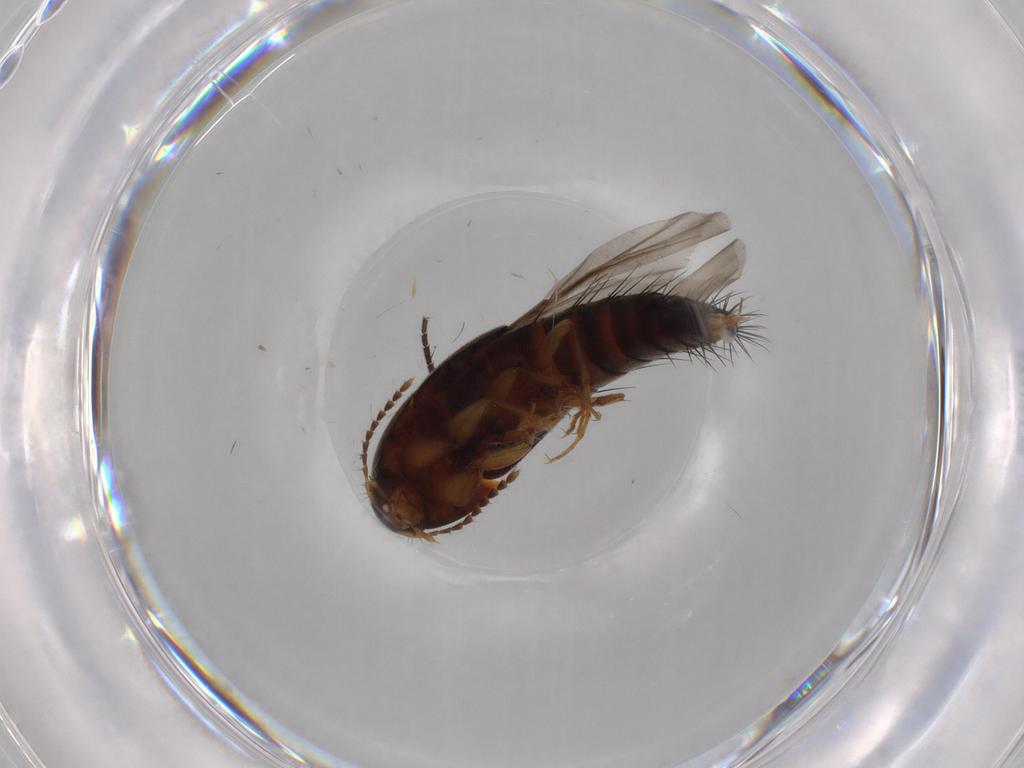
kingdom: Animalia
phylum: Arthropoda
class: Insecta
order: Coleoptera
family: Staphylinidae
